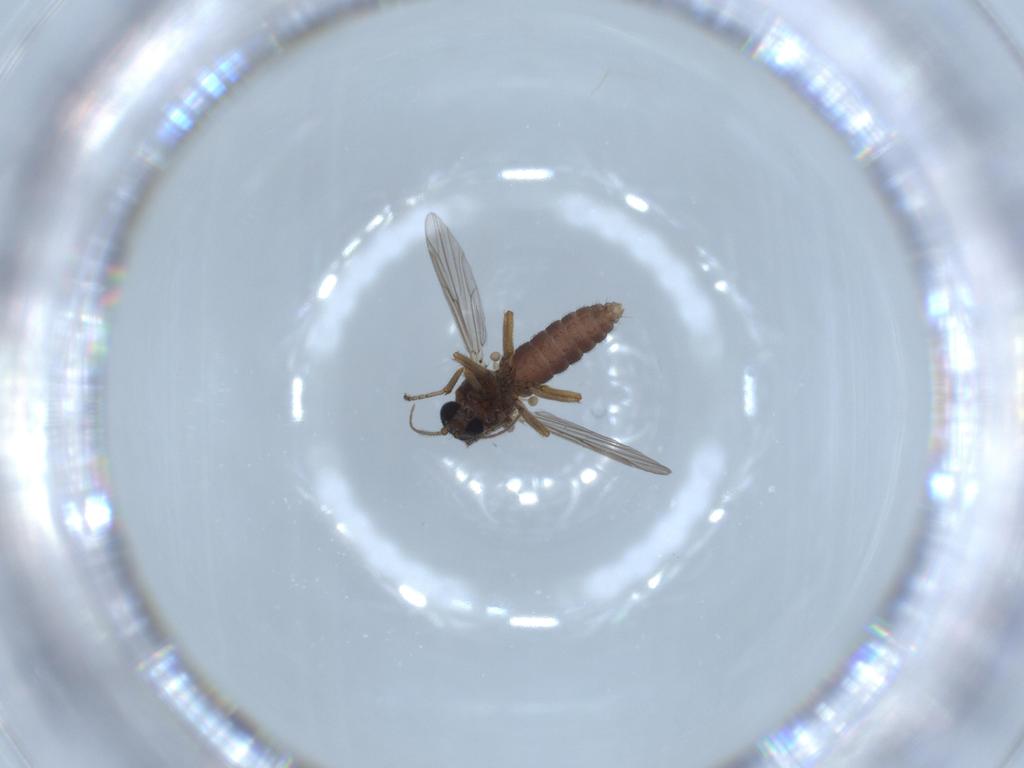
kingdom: Animalia
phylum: Arthropoda
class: Insecta
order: Diptera
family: Ceratopogonidae
